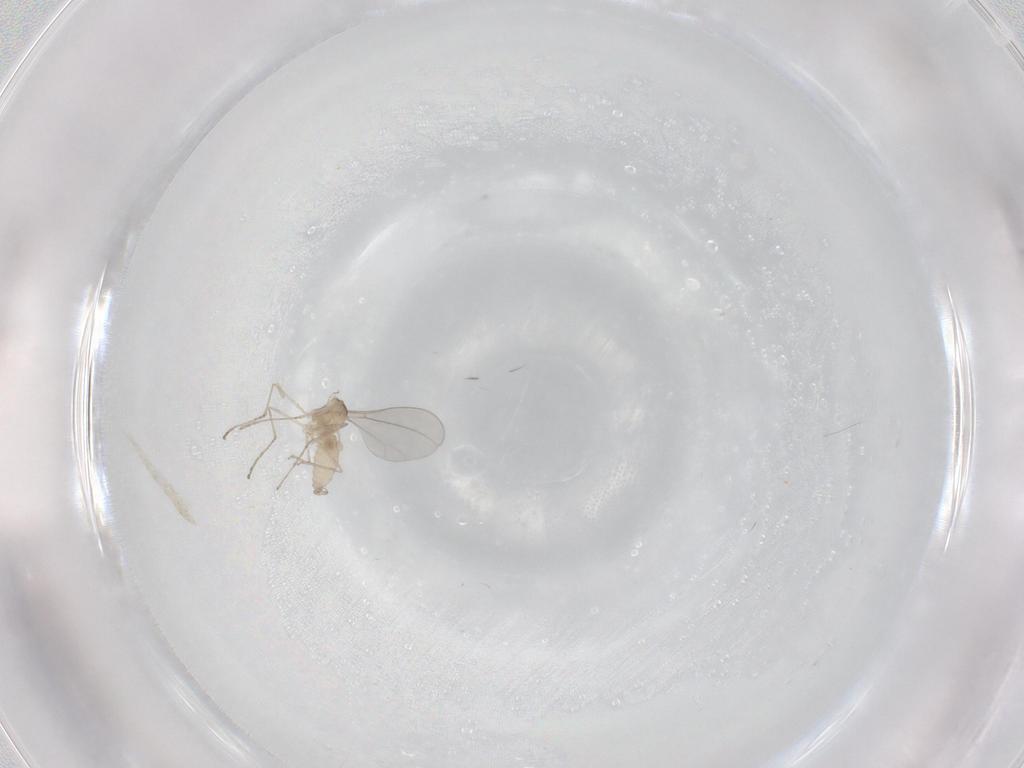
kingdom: Animalia
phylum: Arthropoda
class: Insecta
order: Diptera
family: Cecidomyiidae
